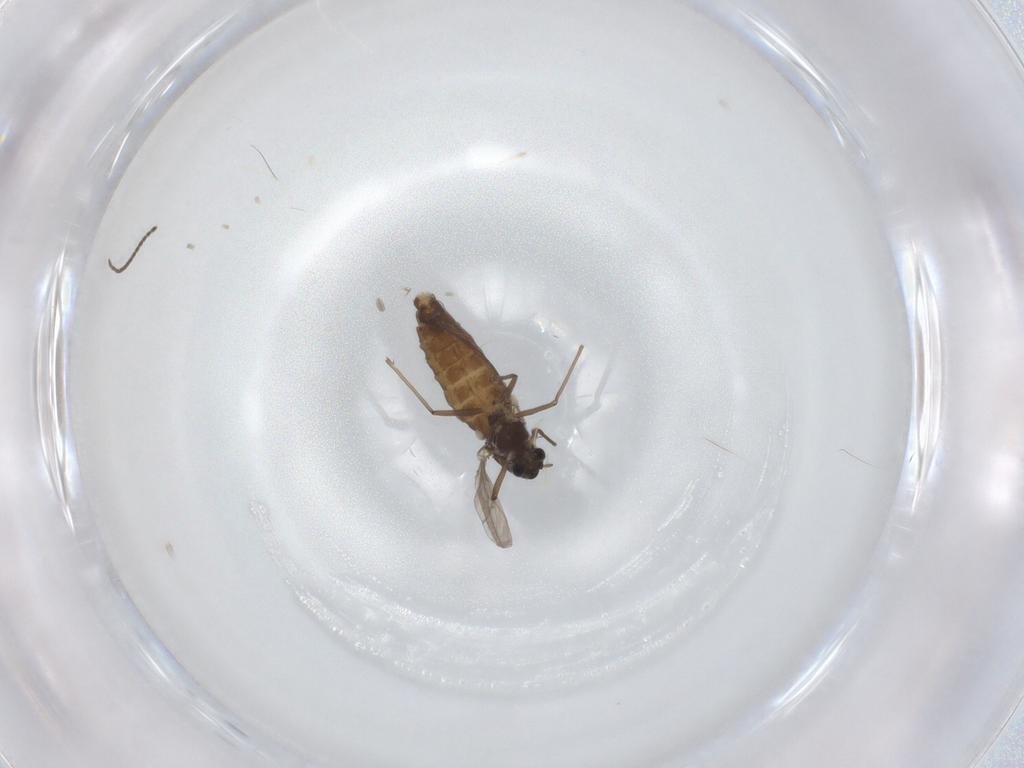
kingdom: Animalia
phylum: Arthropoda
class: Insecta
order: Diptera
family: Chironomidae
